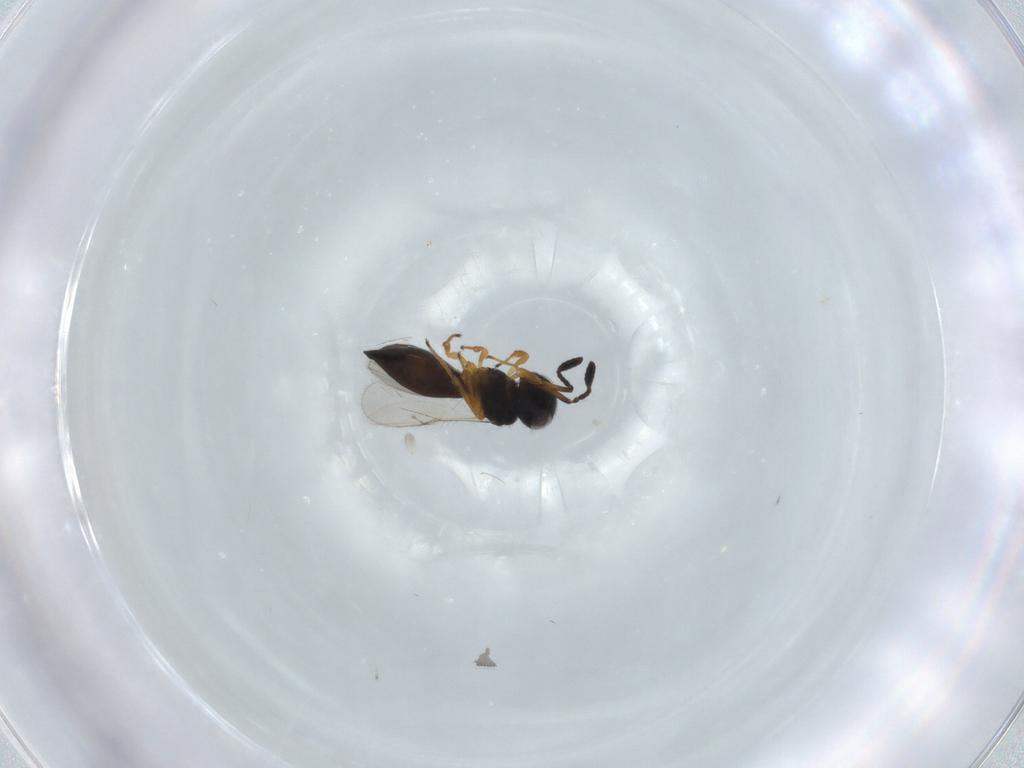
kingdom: Animalia
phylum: Arthropoda
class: Insecta
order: Hymenoptera
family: Scelionidae
